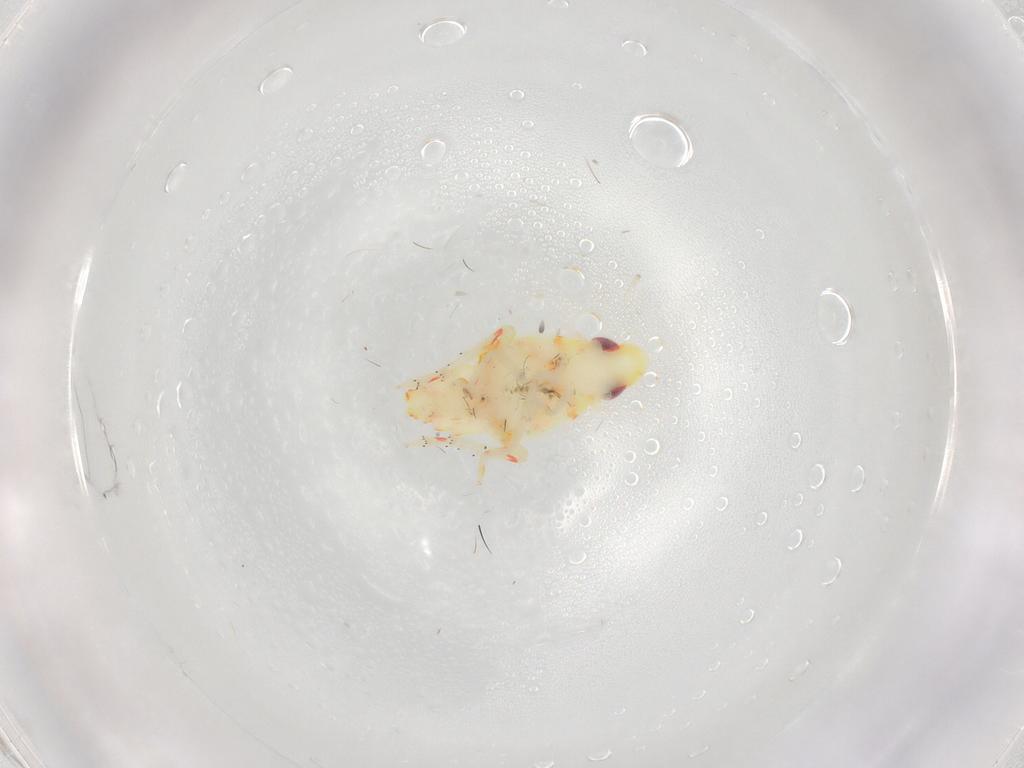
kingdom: Animalia
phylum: Arthropoda
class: Insecta
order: Hemiptera
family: Tropiduchidae
